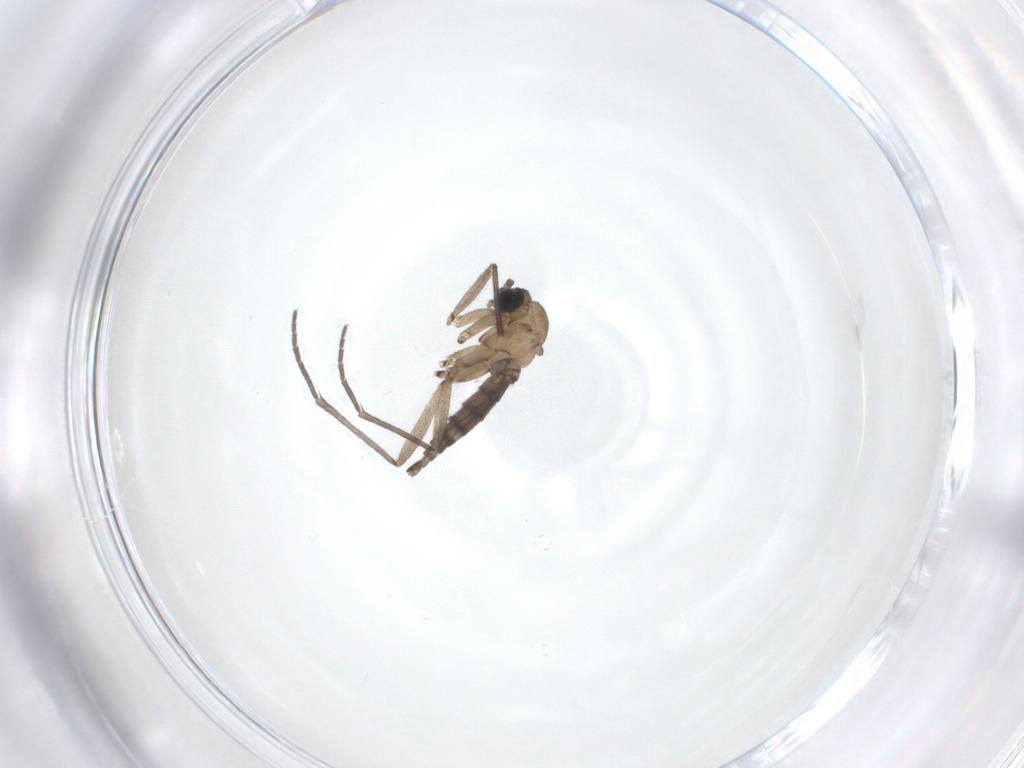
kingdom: Animalia
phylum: Arthropoda
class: Insecta
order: Diptera
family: Sciaridae
